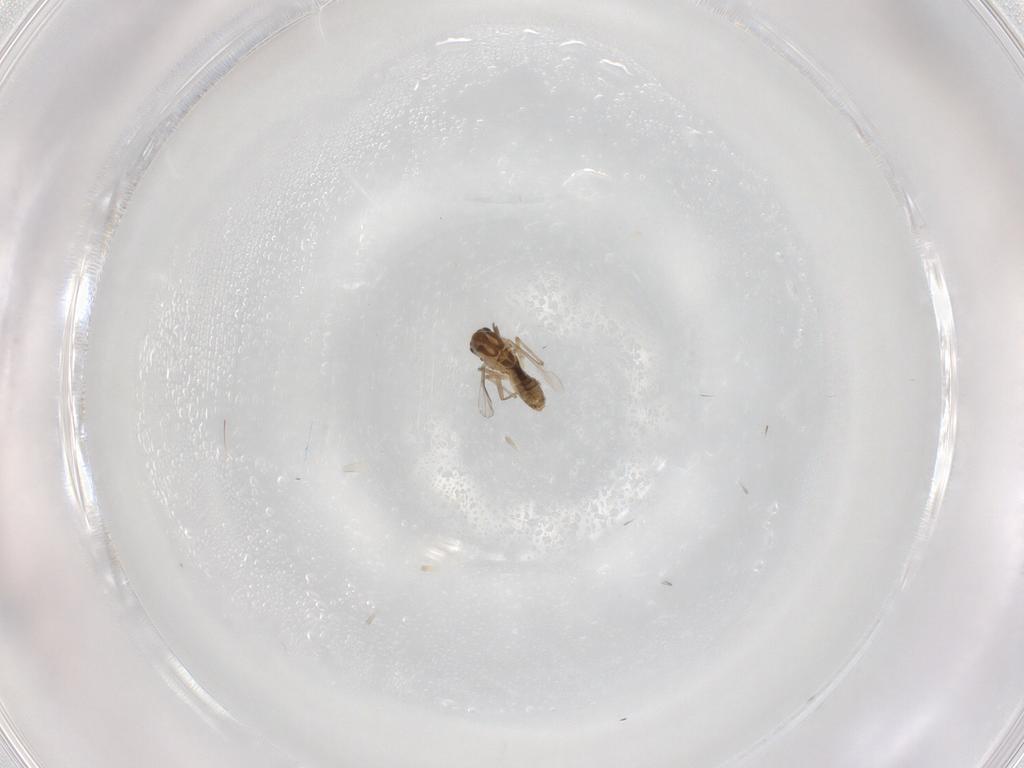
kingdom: Animalia
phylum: Arthropoda
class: Insecta
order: Diptera
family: Chironomidae
